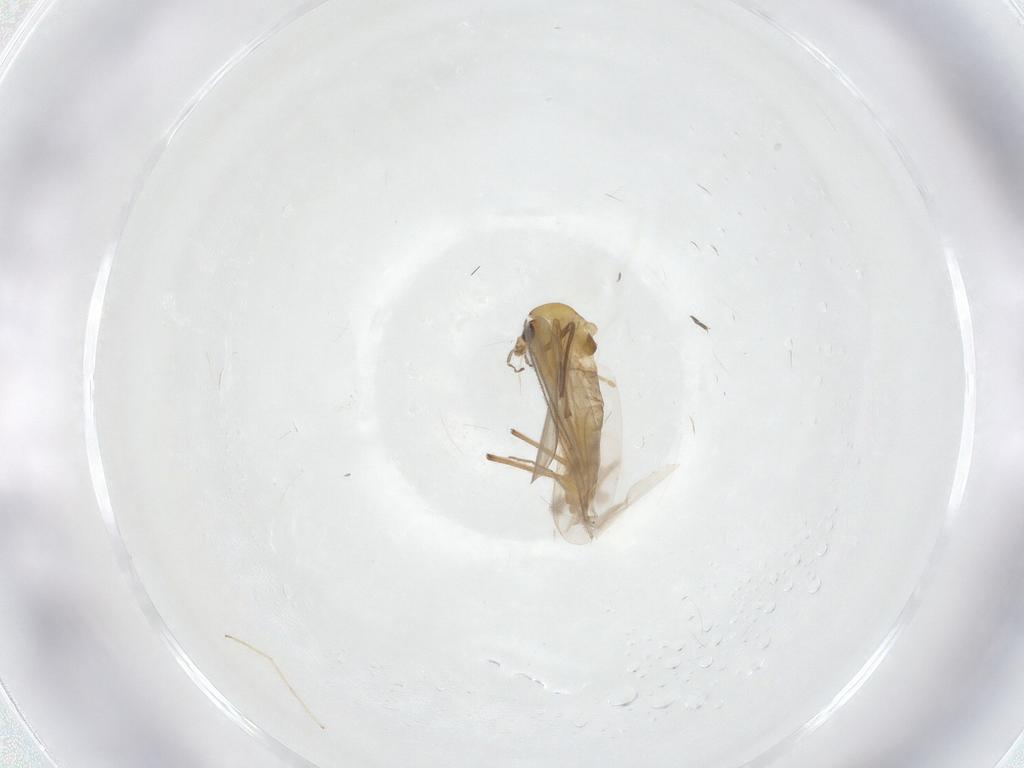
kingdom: Animalia
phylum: Arthropoda
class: Insecta
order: Diptera
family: Chironomidae
